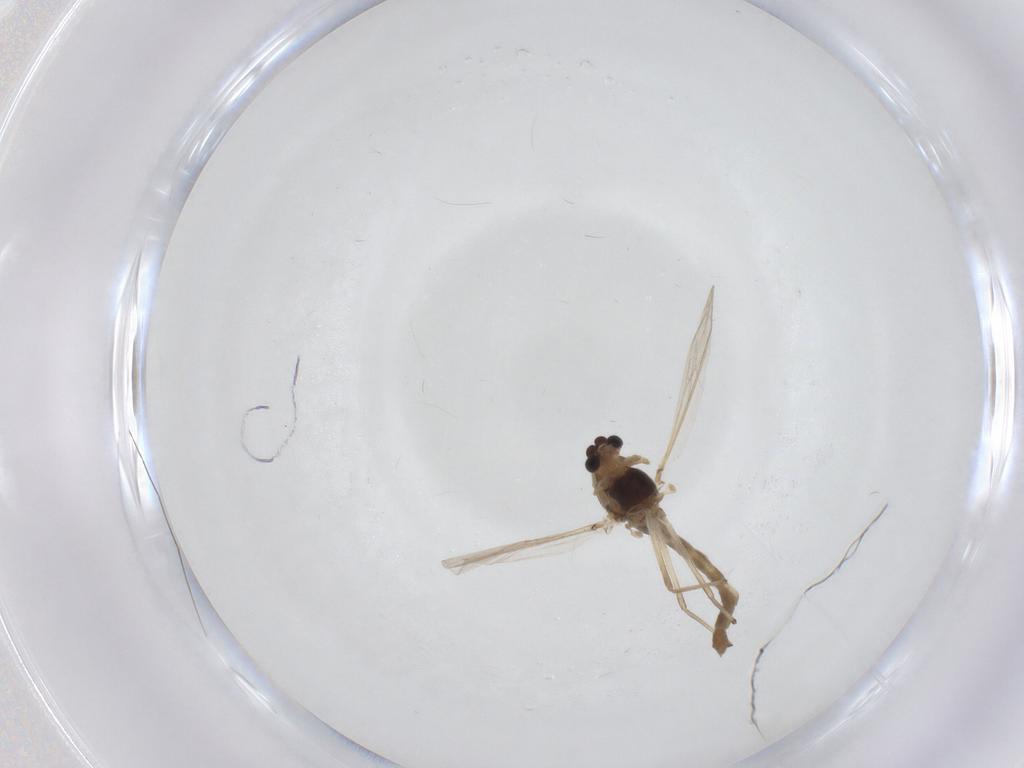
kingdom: Animalia
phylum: Arthropoda
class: Insecta
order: Diptera
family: Chironomidae
